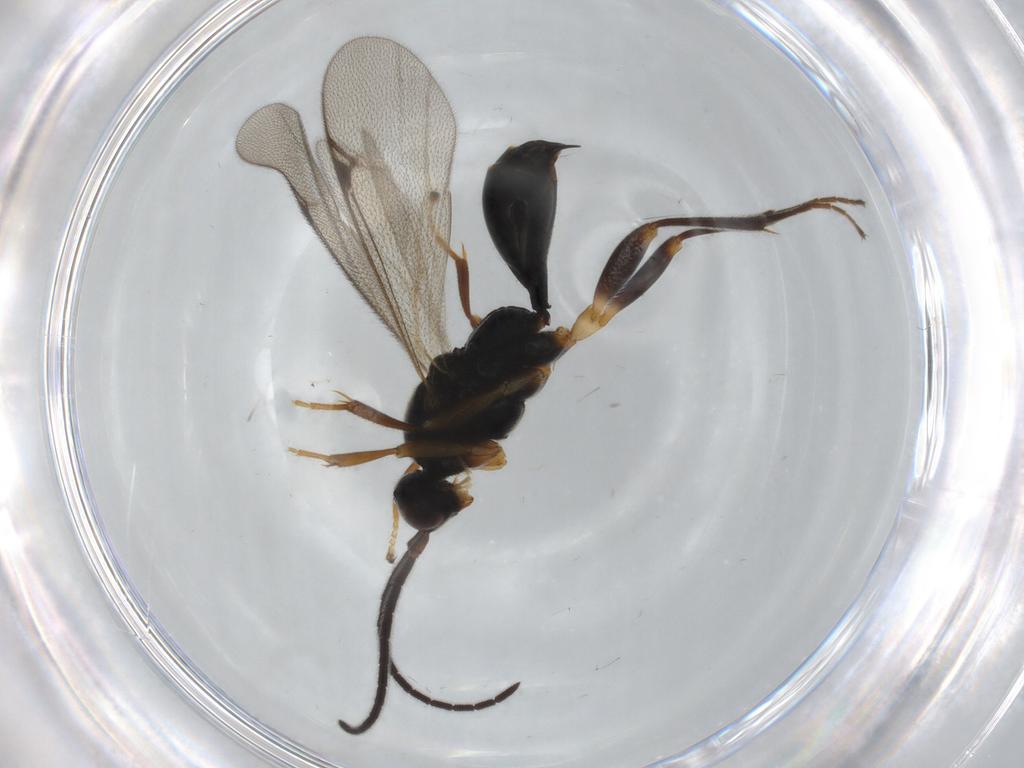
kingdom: Animalia
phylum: Arthropoda
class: Insecta
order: Hymenoptera
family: Proctotrupidae
